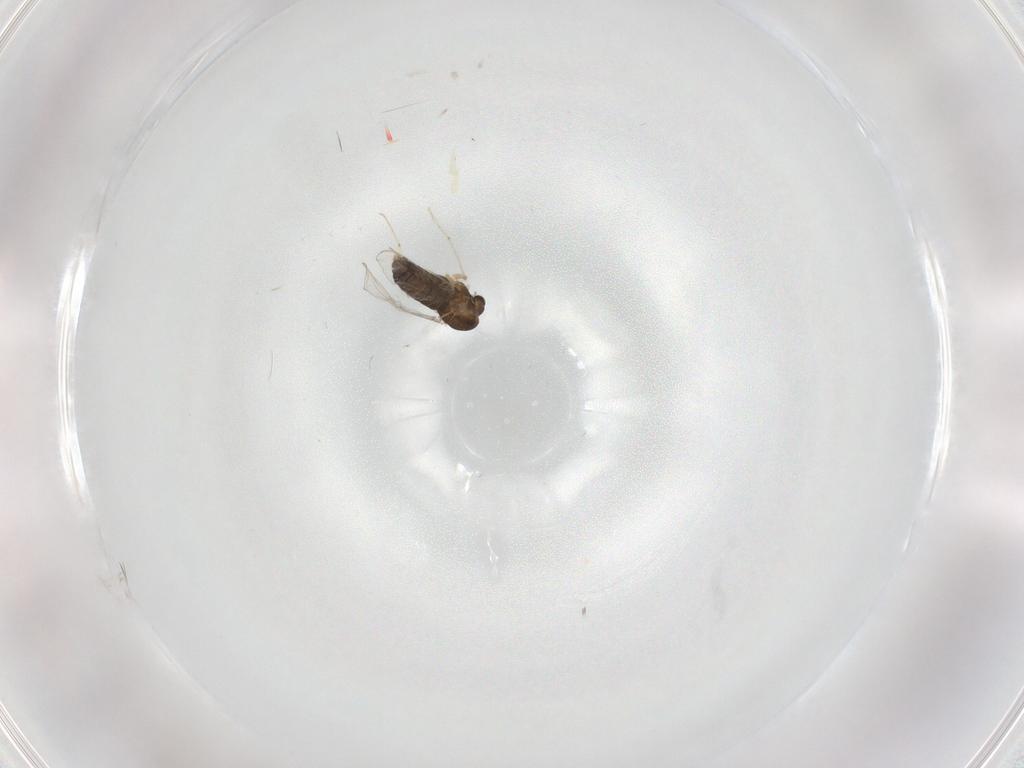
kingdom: Animalia
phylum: Arthropoda
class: Insecta
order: Diptera
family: Chironomidae
